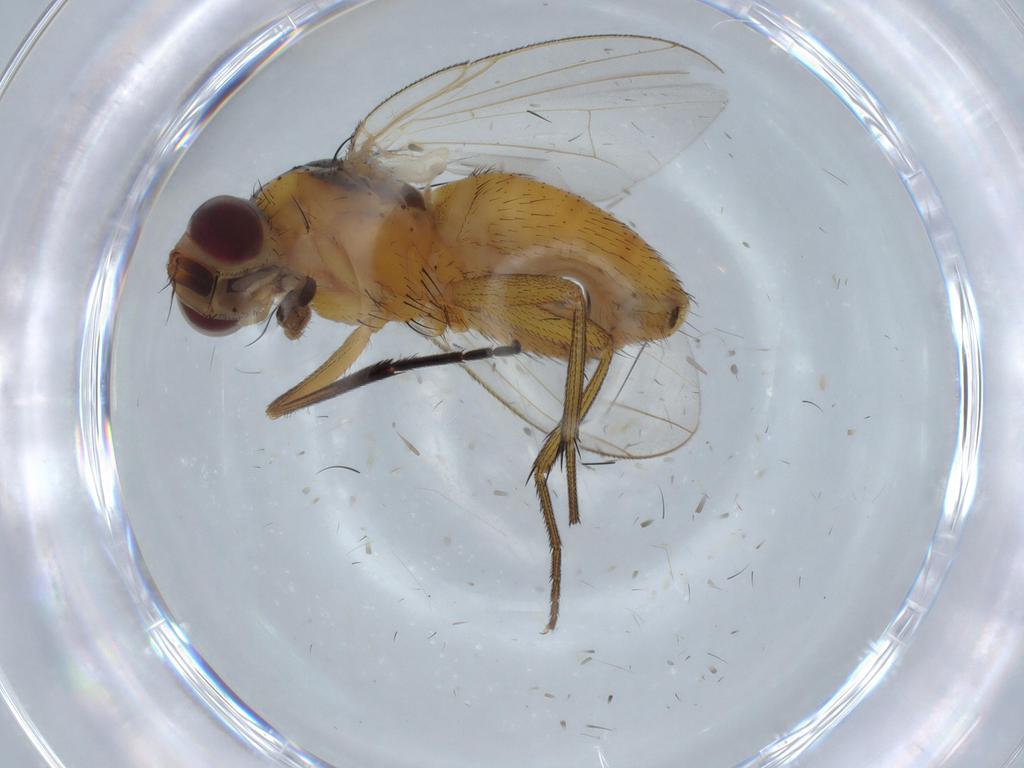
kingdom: Animalia
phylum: Arthropoda
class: Insecta
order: Diptera
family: Calliphoridae
